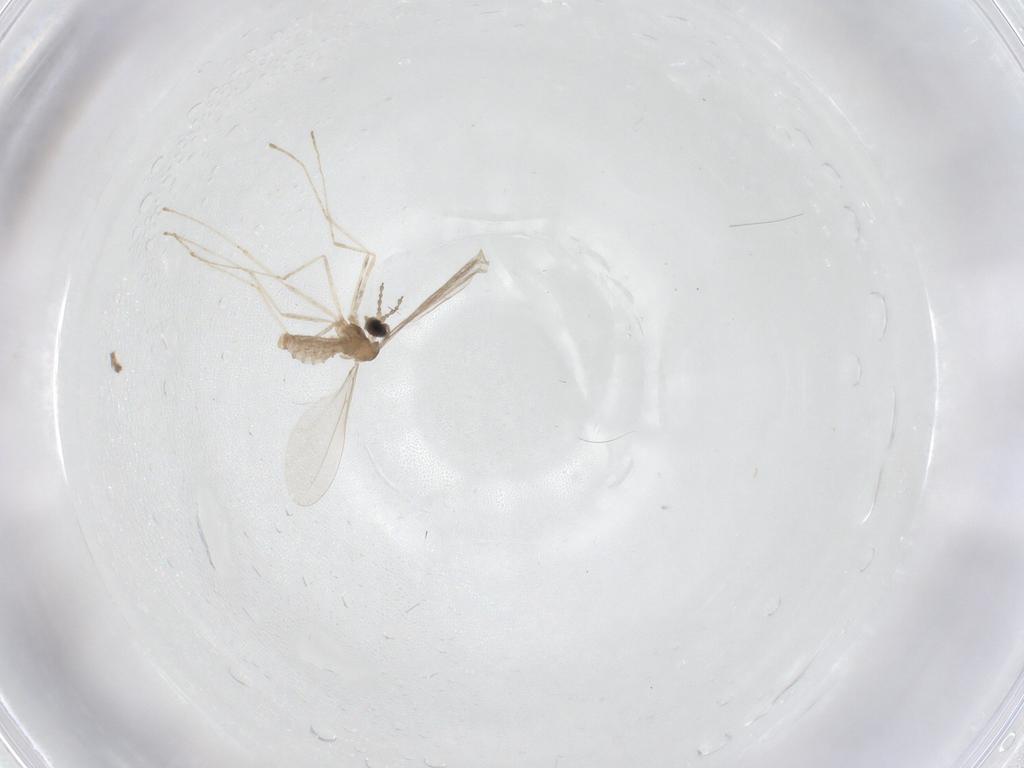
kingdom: Animalia
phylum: Arthropoda
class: Insecta
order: Diptera
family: Cecidomyiidae
